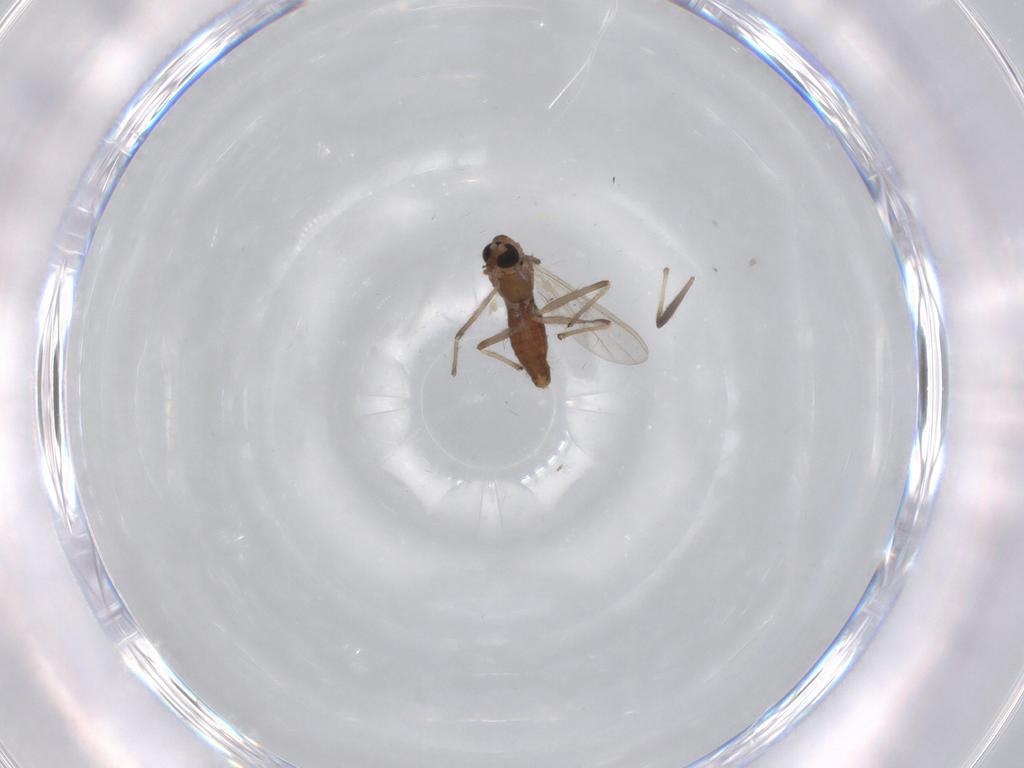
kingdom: Animalia
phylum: Arthropoda
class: Insecta
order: Diptera
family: Chironomidae
